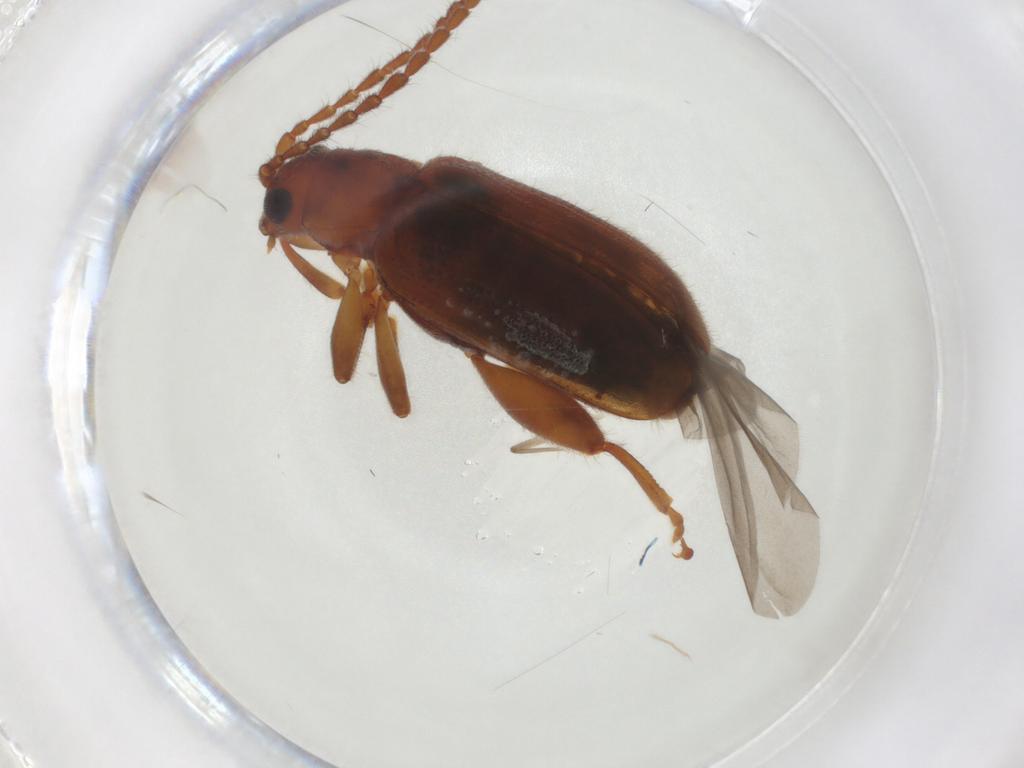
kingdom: Animalia
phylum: Arthropoda
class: Insecta
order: Coleoptera
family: Chrysomelidae
